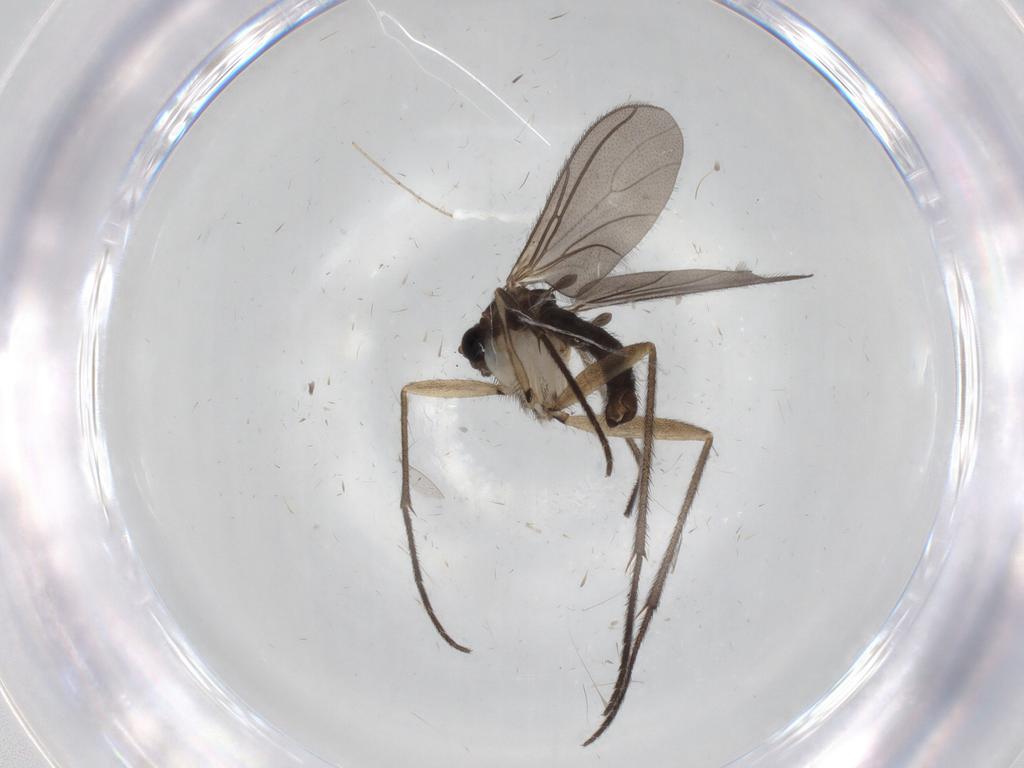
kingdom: Animalia
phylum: Arthropoda
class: Insecta
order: Diptera
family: Sciaridae
